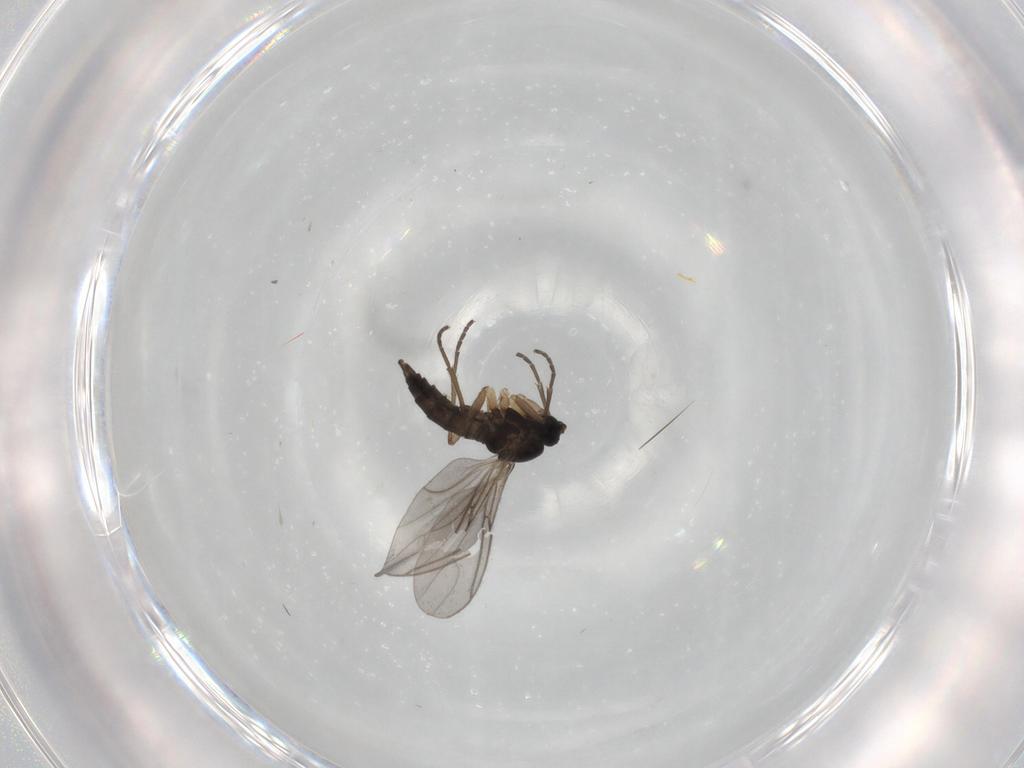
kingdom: Animalia
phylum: Arthropoda
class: Insecta
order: Diptera
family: Sciaridae
